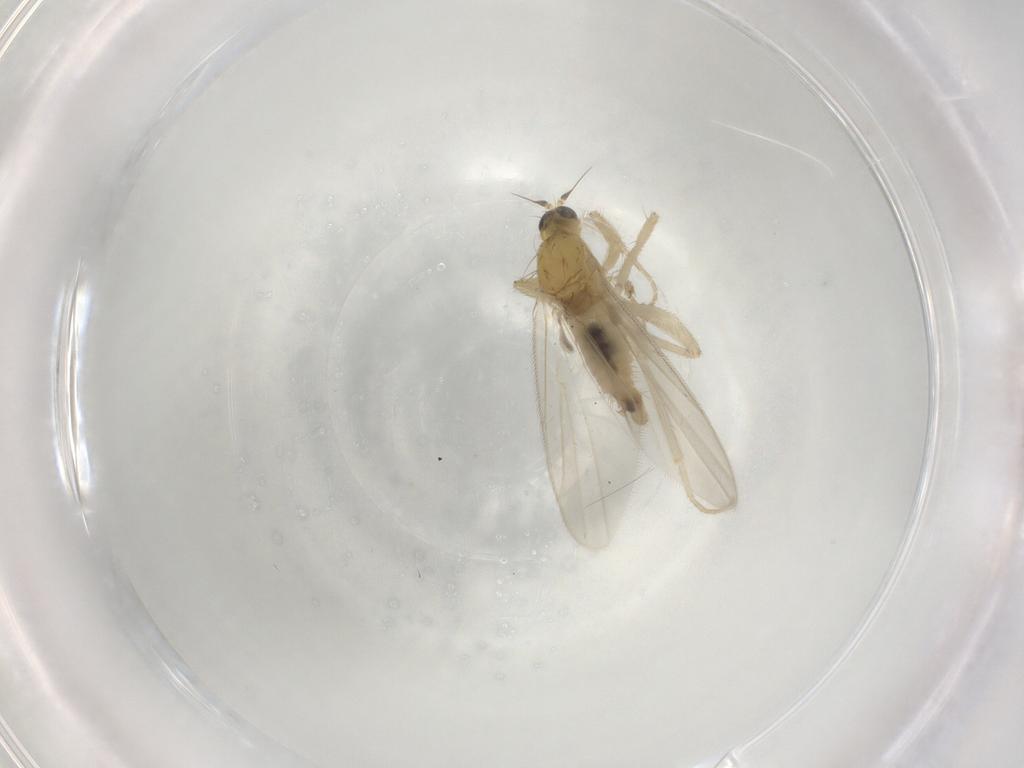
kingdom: Animalia
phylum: Arthropoda
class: Insecta
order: Diptera
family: Hybotidae
